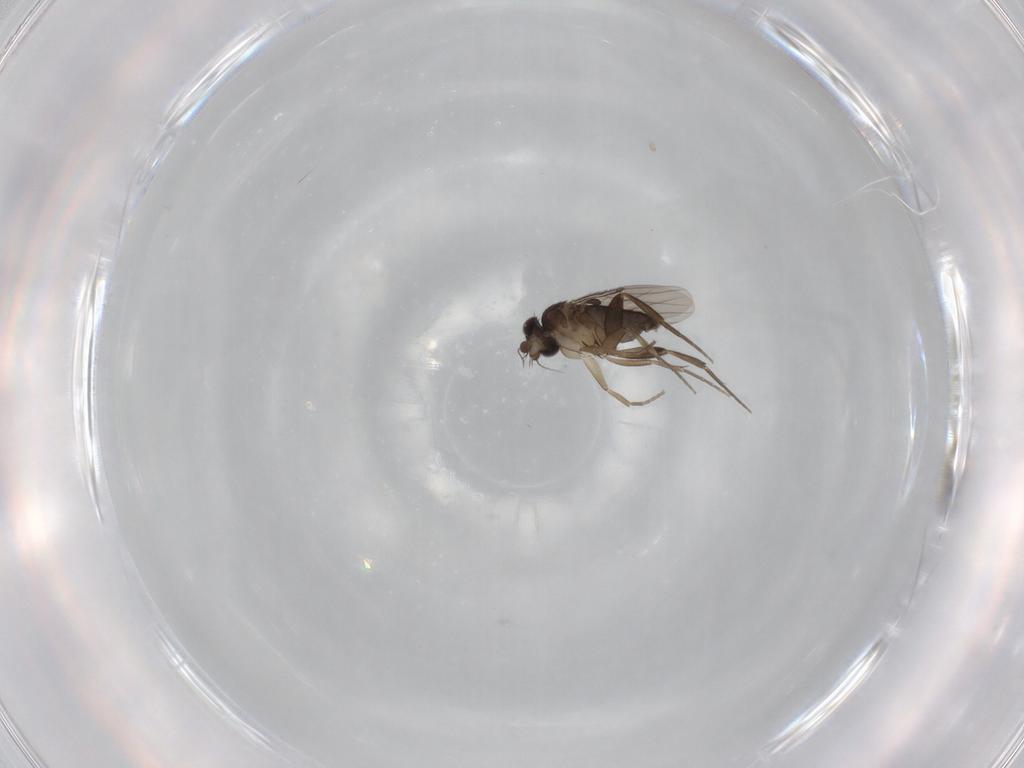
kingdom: Animalia
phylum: Arthropoda
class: Insecta
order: Diptera
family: Phoridae
